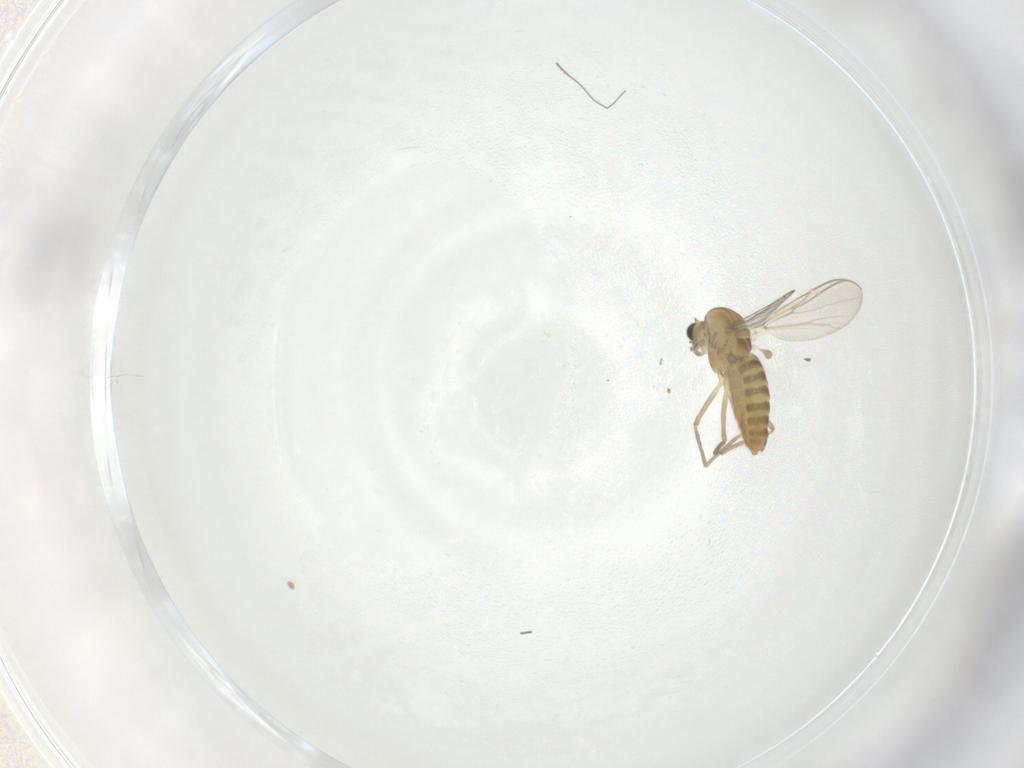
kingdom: Animalia
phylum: Arthropoda
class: Insecta
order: Diptera
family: Chironomidae
